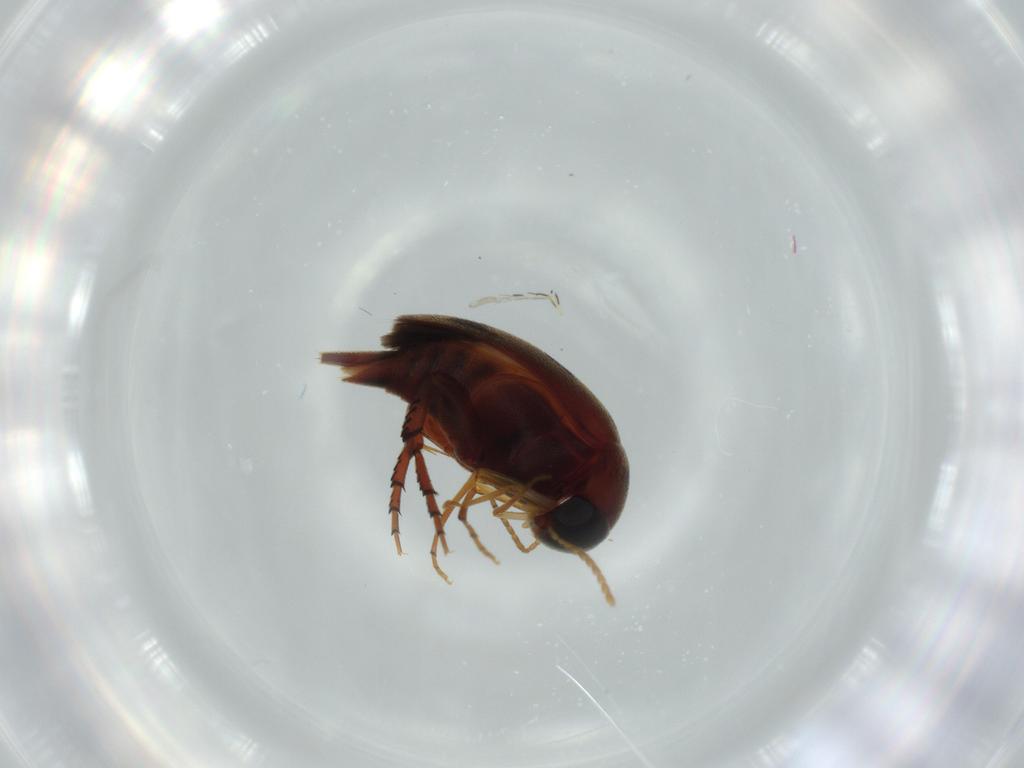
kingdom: Animalia
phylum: Arthropoda
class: Insecta
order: Coleoptera
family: Mordellidae
